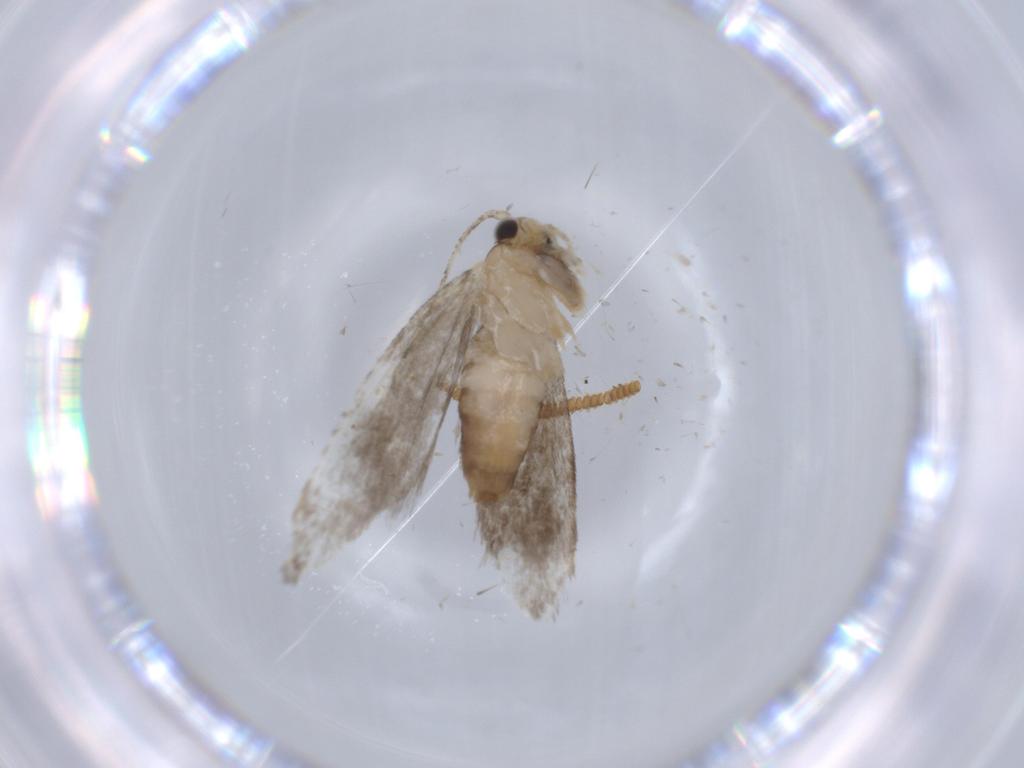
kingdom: Animalia
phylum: Arthropoda
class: Insecta
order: Lepidoptera
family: Tineidae
